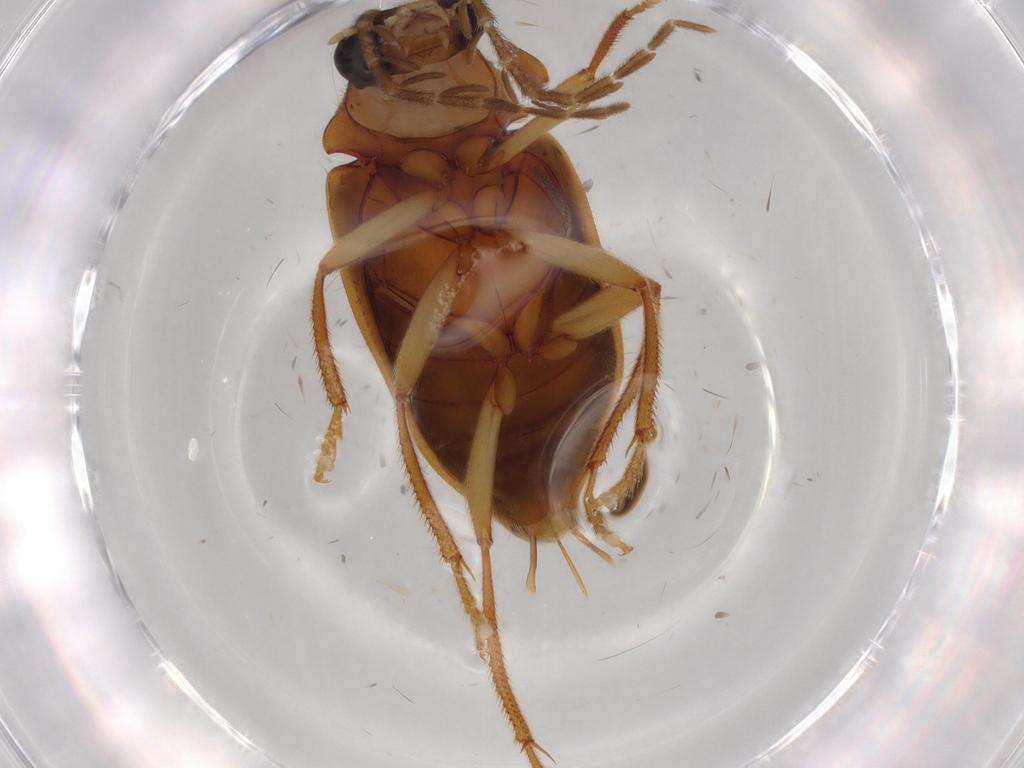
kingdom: Animalia
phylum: Arthropoda
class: Insecta
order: Coleoptera
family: Ptilodactylidae
